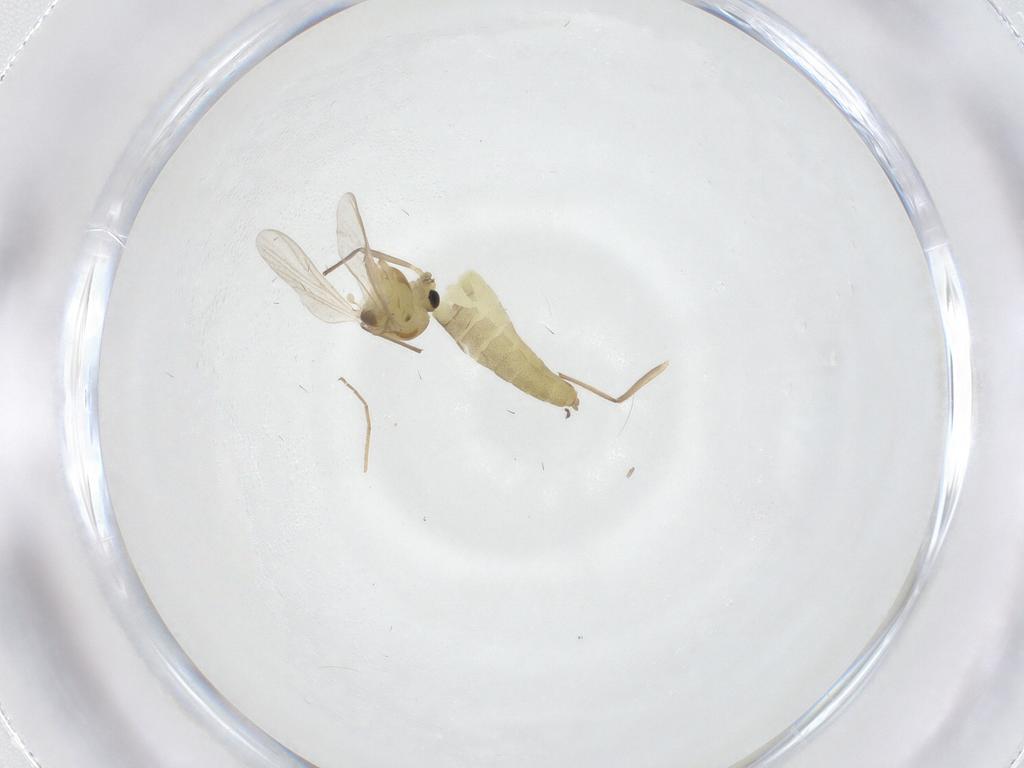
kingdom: Animalia
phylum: Arthropoda
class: Insecta
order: Diptera
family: Chironomidae
